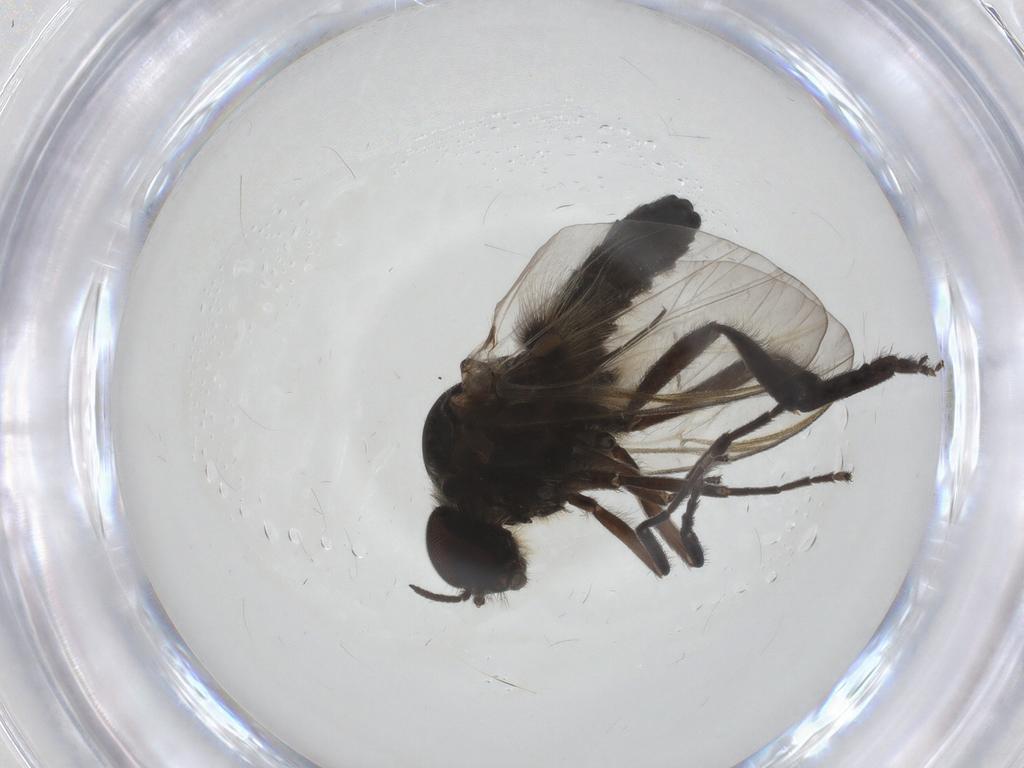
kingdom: Animalia
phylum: Arthropoda
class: Insecta
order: Diptera
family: Simuliidae
